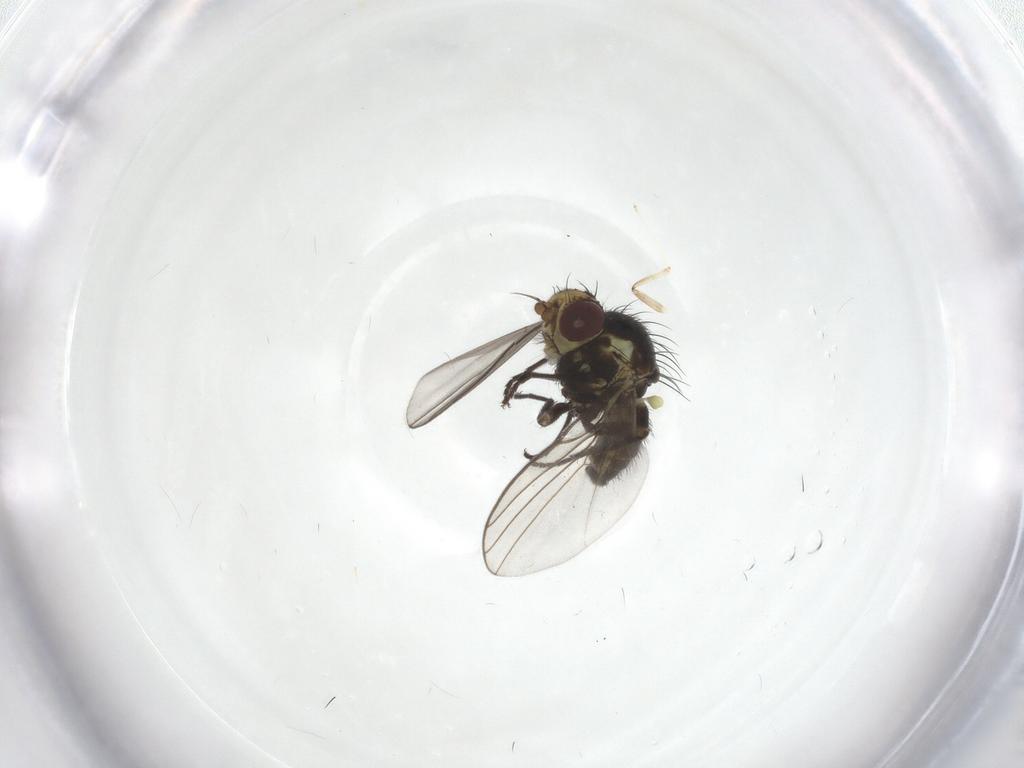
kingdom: Animalia
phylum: Arthropoda
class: Insecta
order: Diptera
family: Agromyzidae
